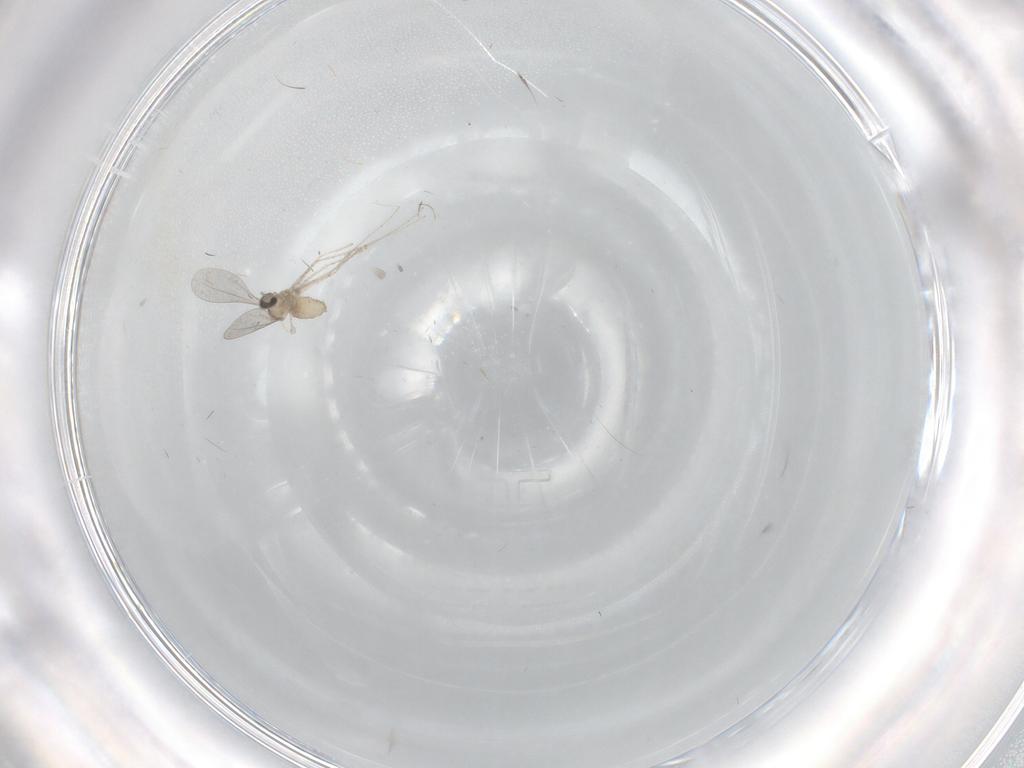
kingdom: Animalia
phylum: Arthropoda
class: Insecta
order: Diptera
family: Cecidomyiidae
